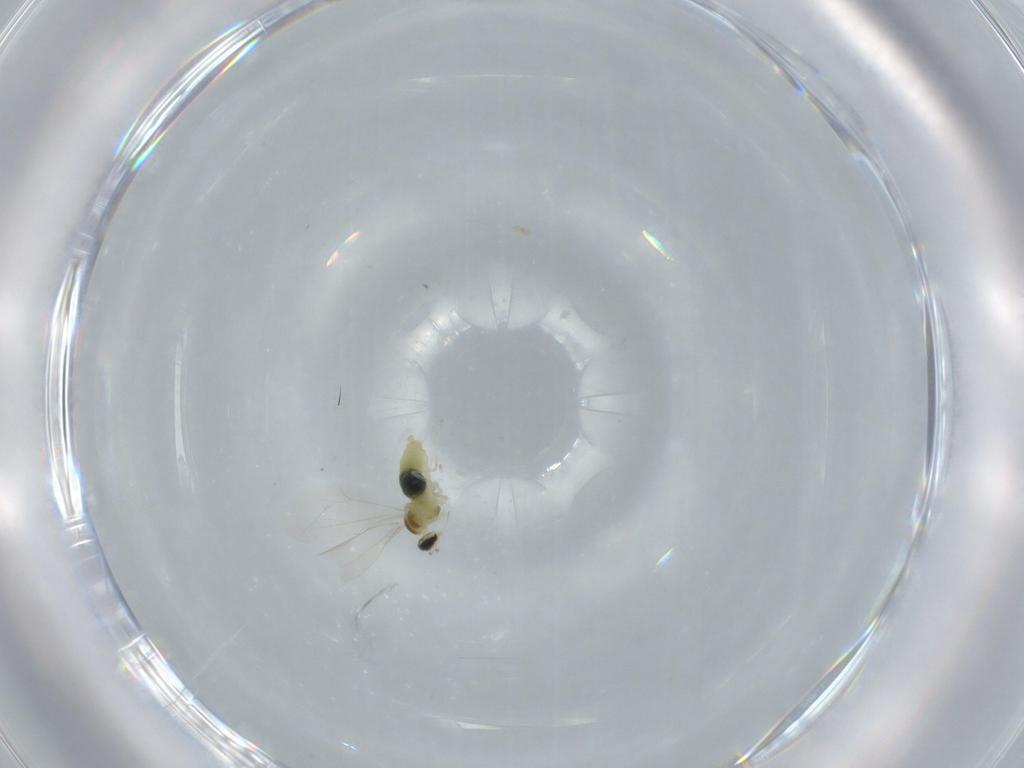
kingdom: Animalia
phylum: Arthropoda
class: Insecta
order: Diptera
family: Cecidomyiidae
